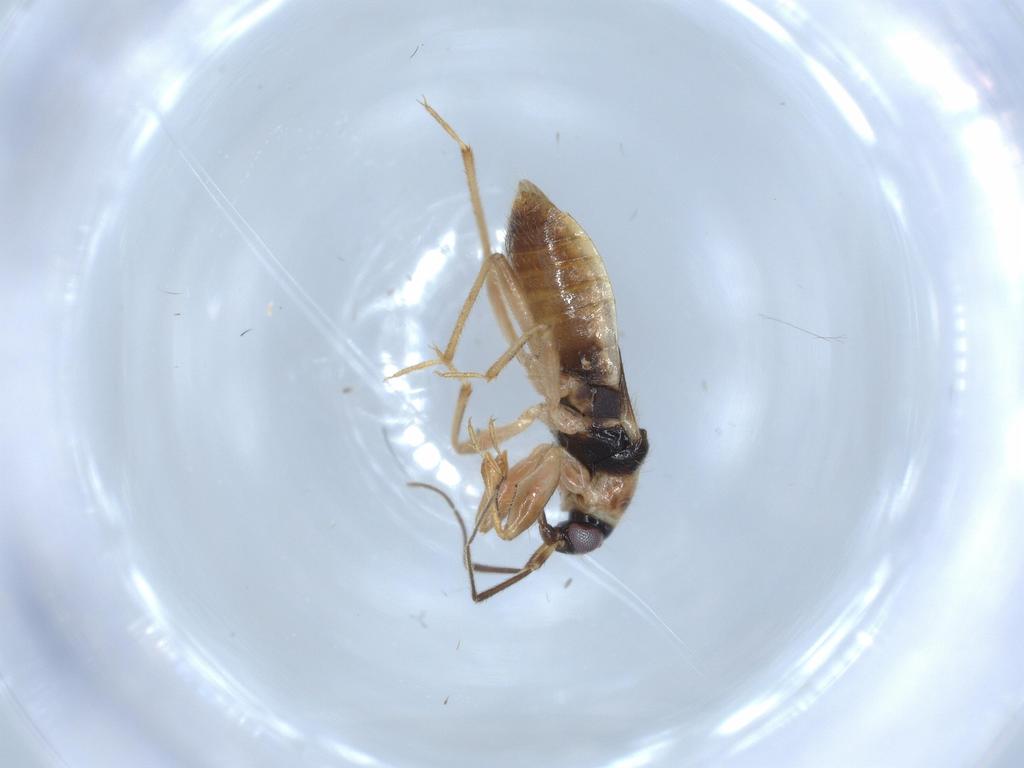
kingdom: Animalia
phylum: Arthropoda
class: Insecta
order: Hemiptera
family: Nabidae
